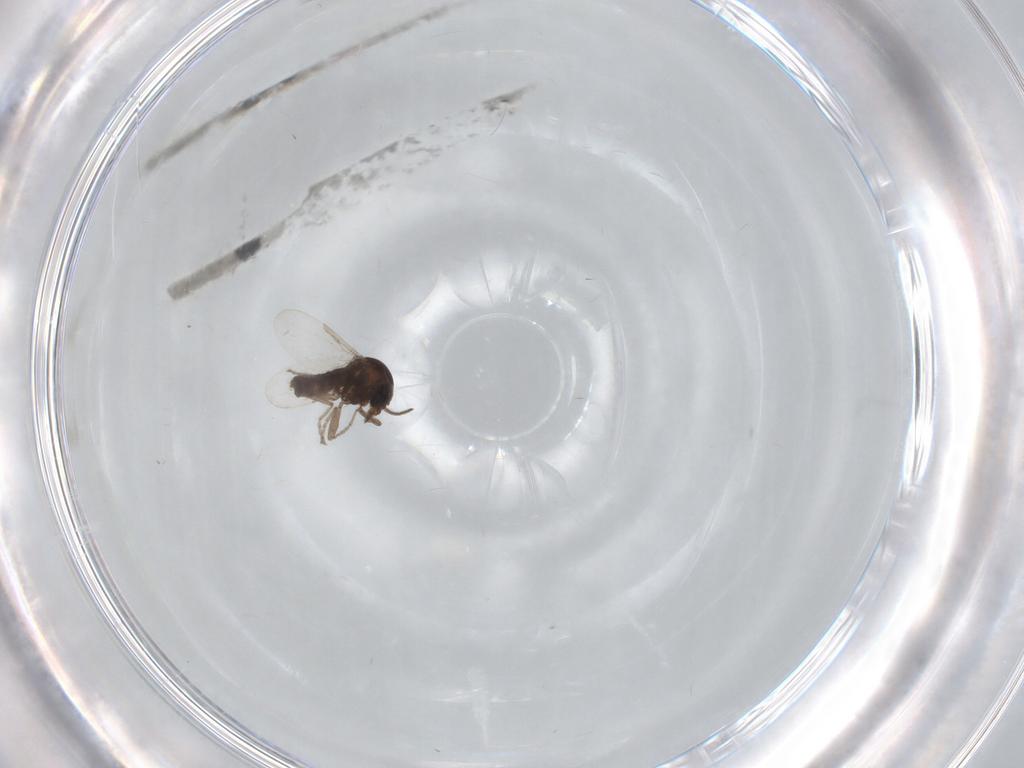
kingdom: Animalia
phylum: Arthropoda
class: Insecta
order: Diptera
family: Ceratopogonidae
